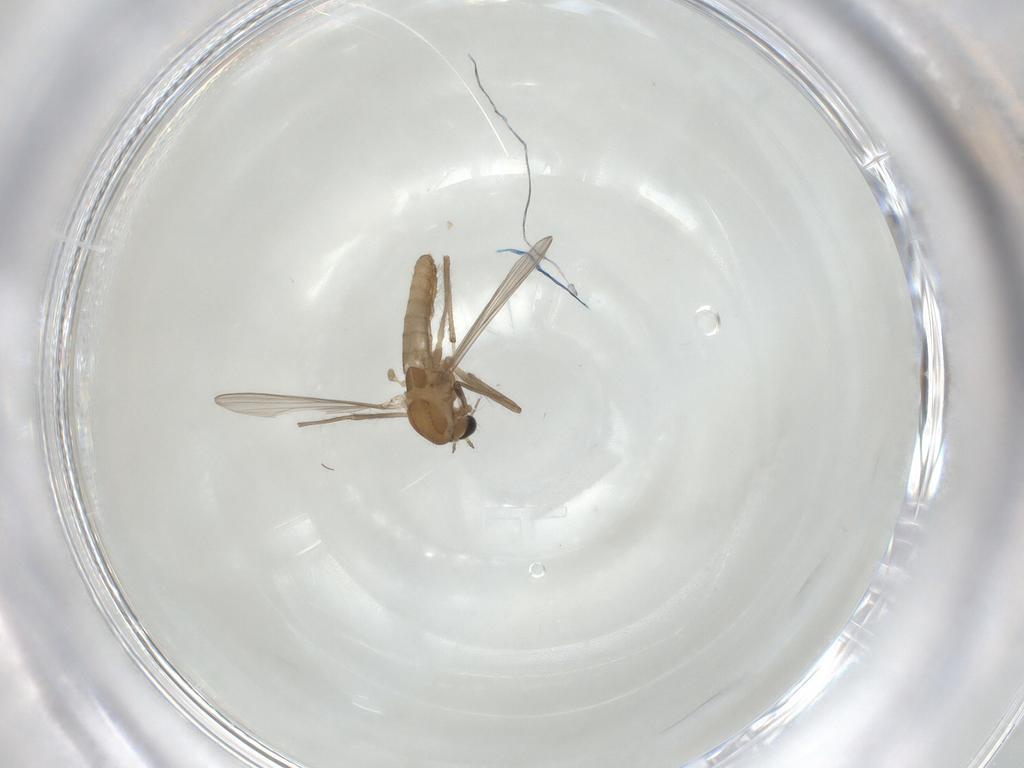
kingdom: Animalia
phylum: Arthropoda
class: Insecta
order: Diptera
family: Chironomidae
